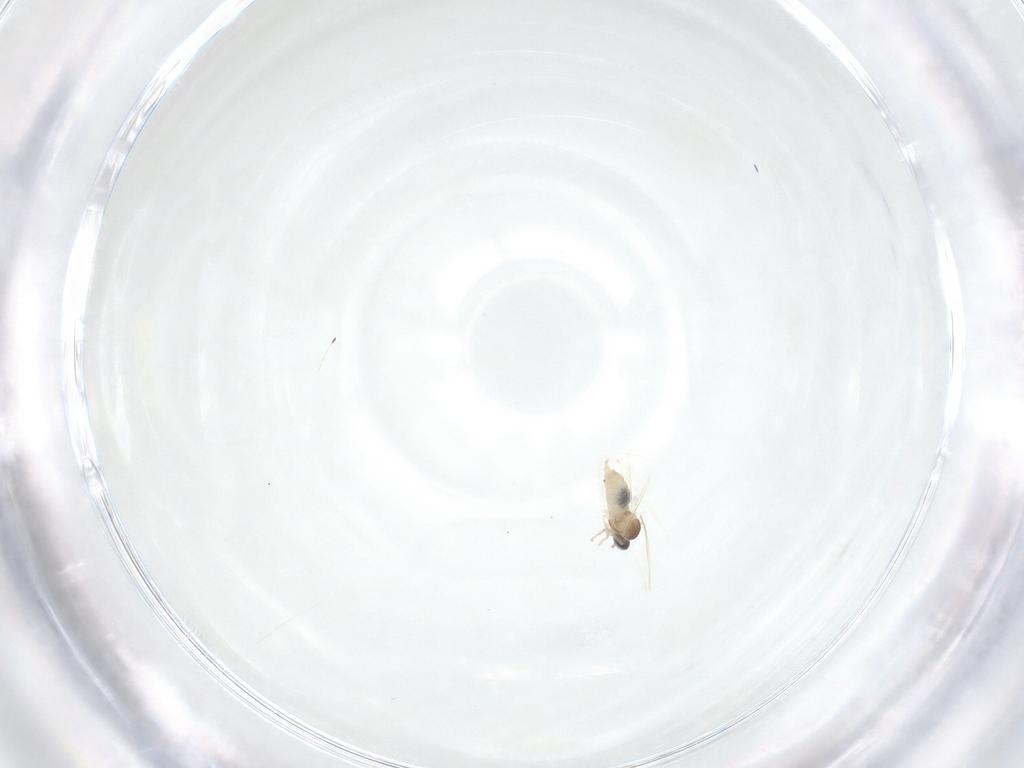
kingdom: Animalia
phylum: Arthropoda
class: Insecta
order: Diptera
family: Cecidomyiidae
